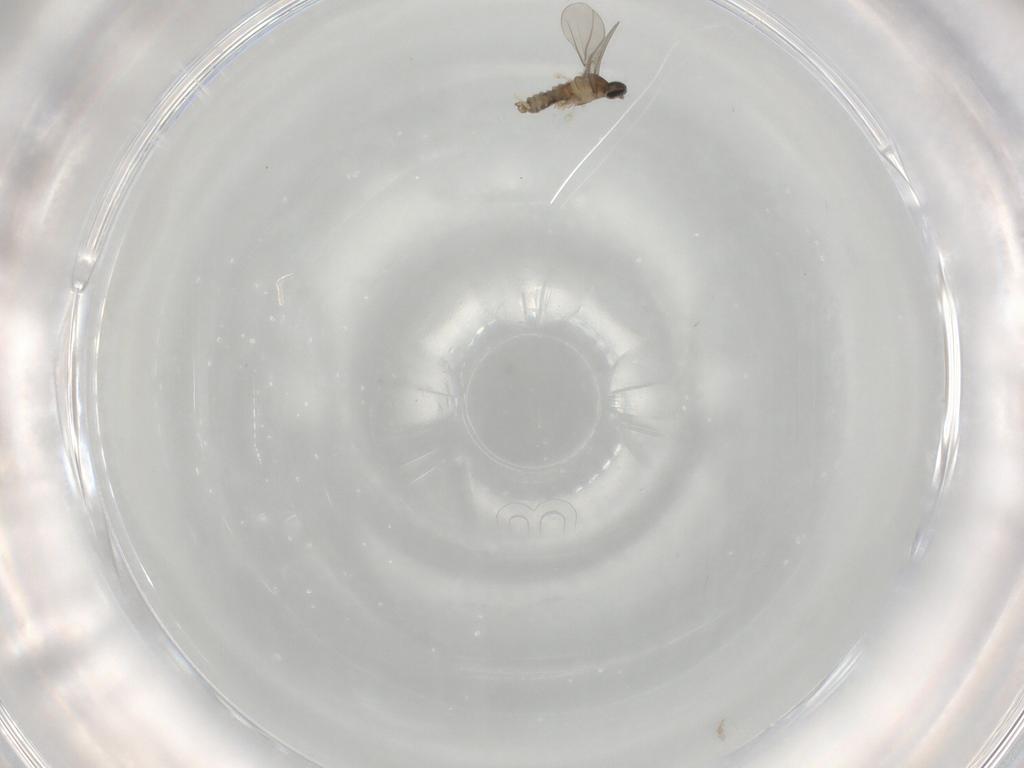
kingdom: Animalia
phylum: Arthropoda
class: Insecta
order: Diptera
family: Cecidomyiidae
